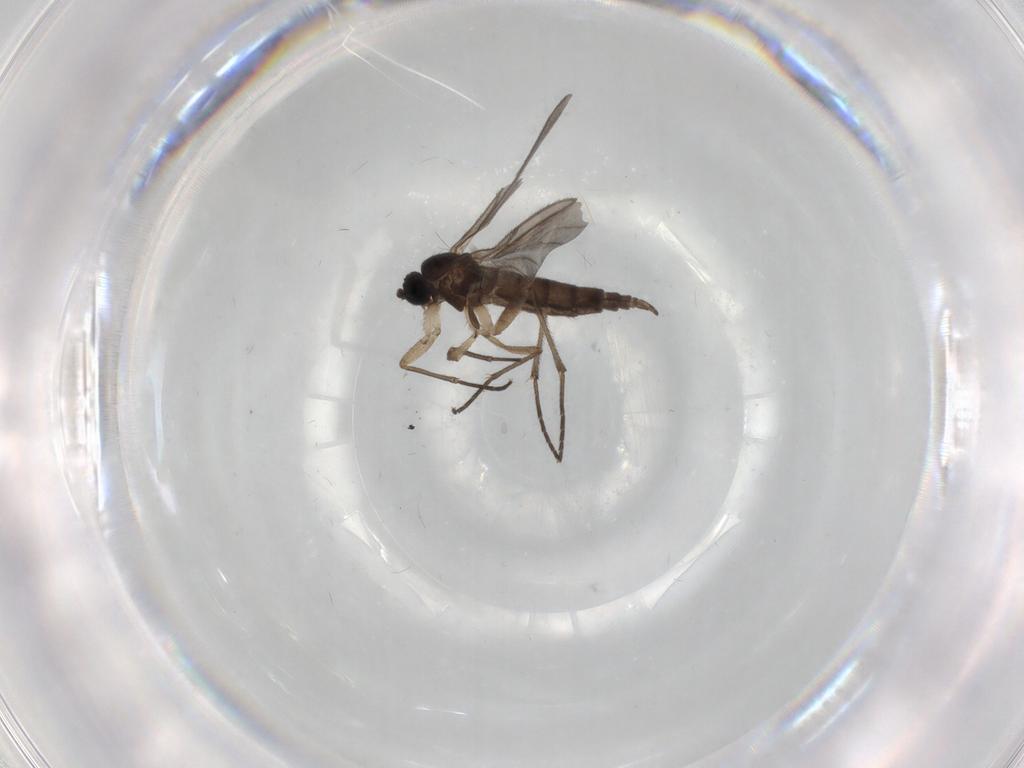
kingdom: Animalia
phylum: Arthropoda
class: Insecta
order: Diptera
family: Sciaridae
